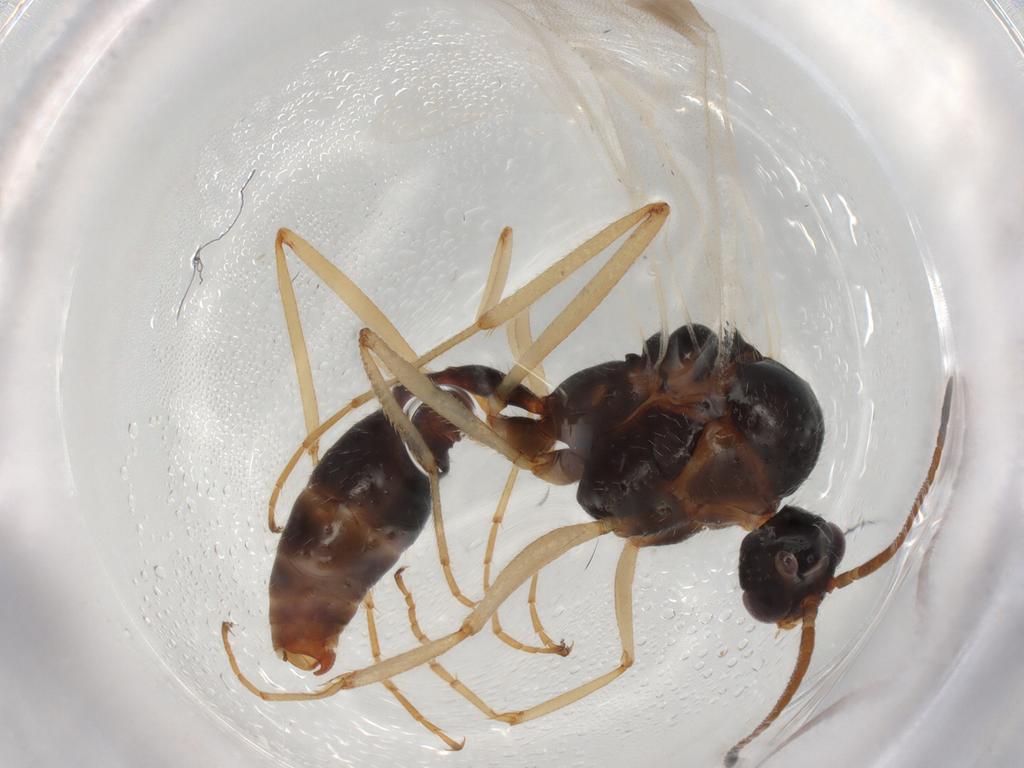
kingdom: Animalia
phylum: Arthropoda
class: Insecta
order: Hymenoptera
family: Formicidae
